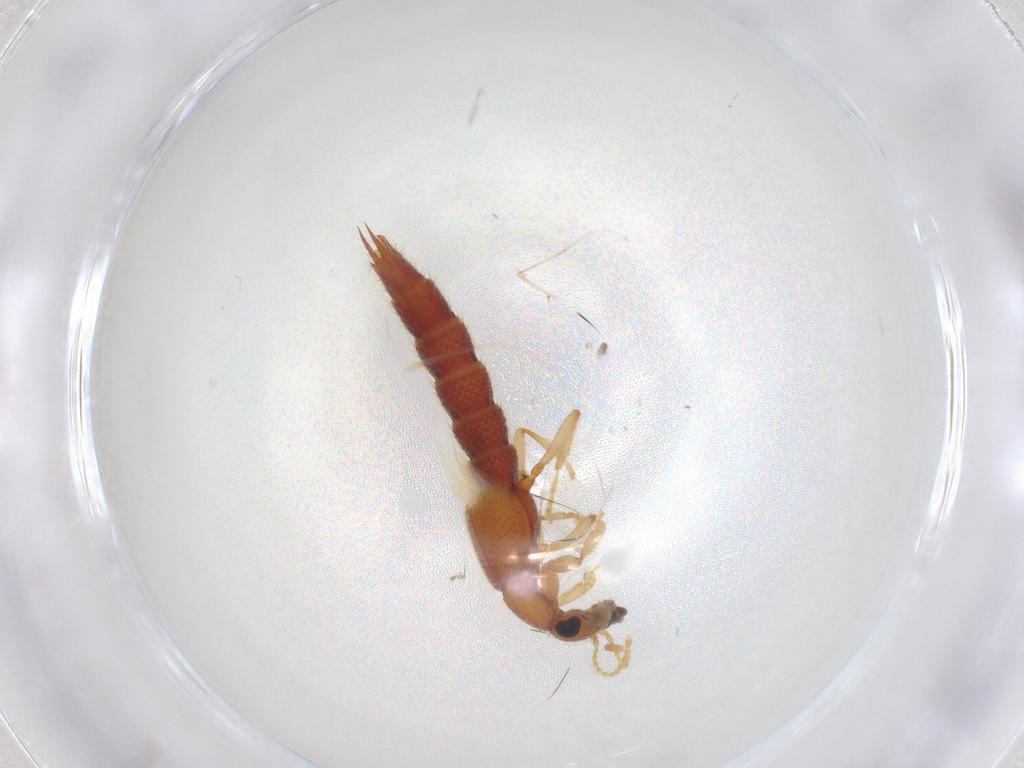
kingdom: Animalia
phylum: Arthropoda
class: Insecta
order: Coleoptera
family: Staphylinidae
